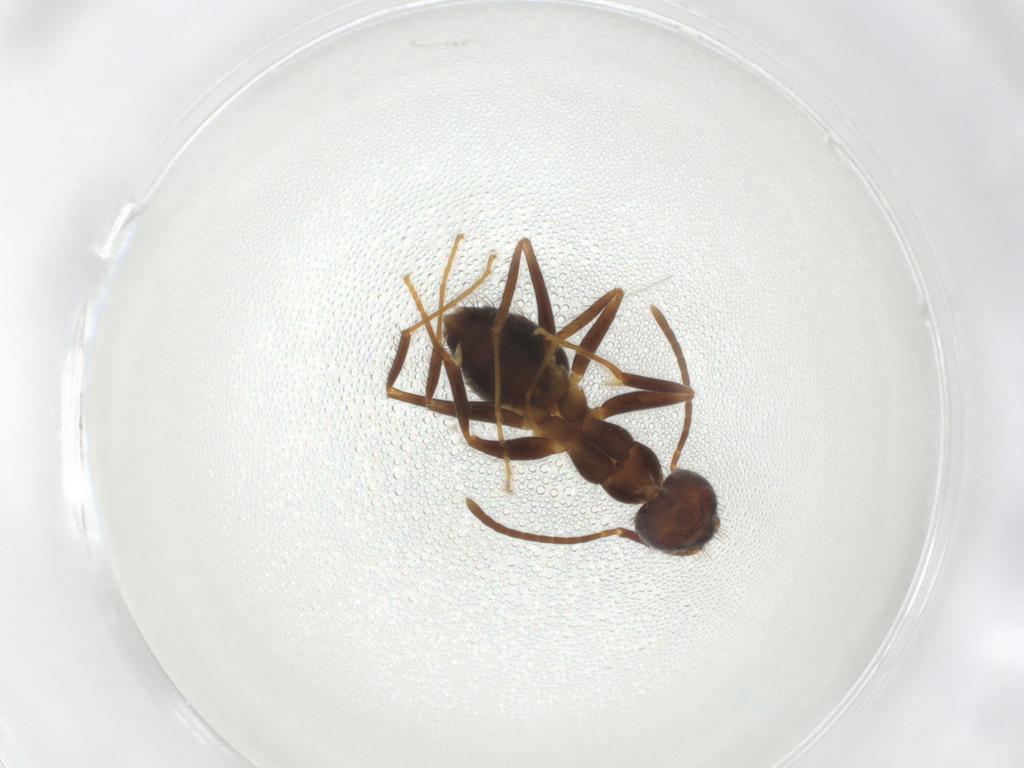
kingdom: Animalia
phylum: Arthropoda
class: Insecta
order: Hymenoptera
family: Formicidae
